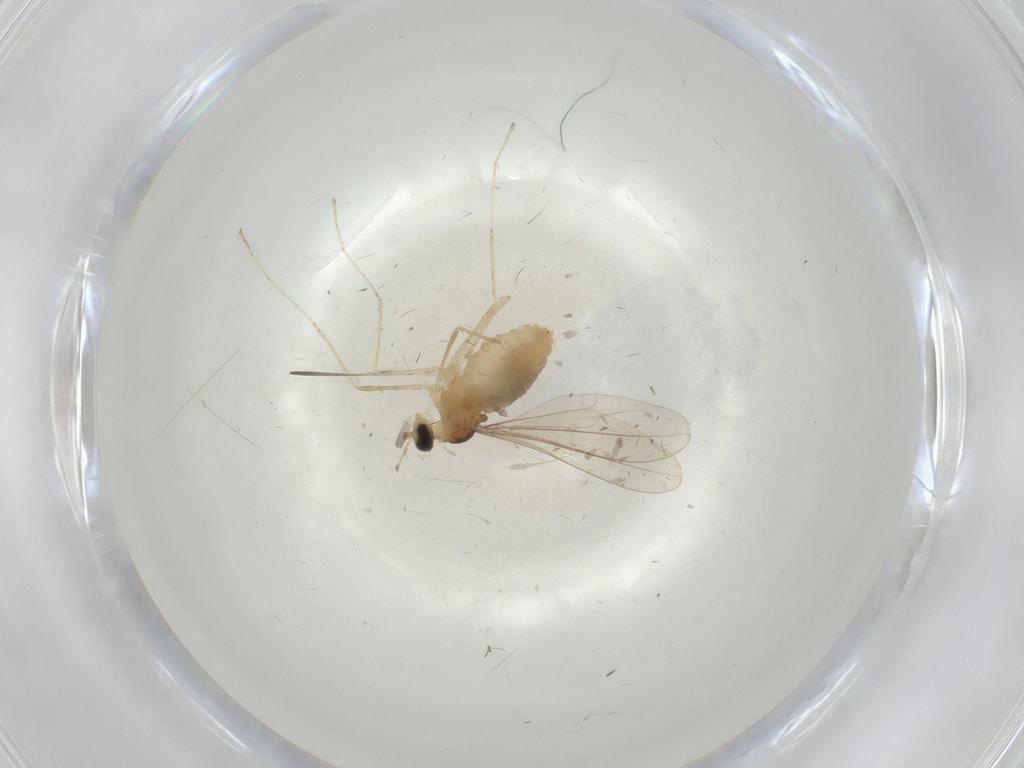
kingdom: Animalia
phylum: Arthropoda
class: Insecta
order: Diptera
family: Cecidomyiidae
